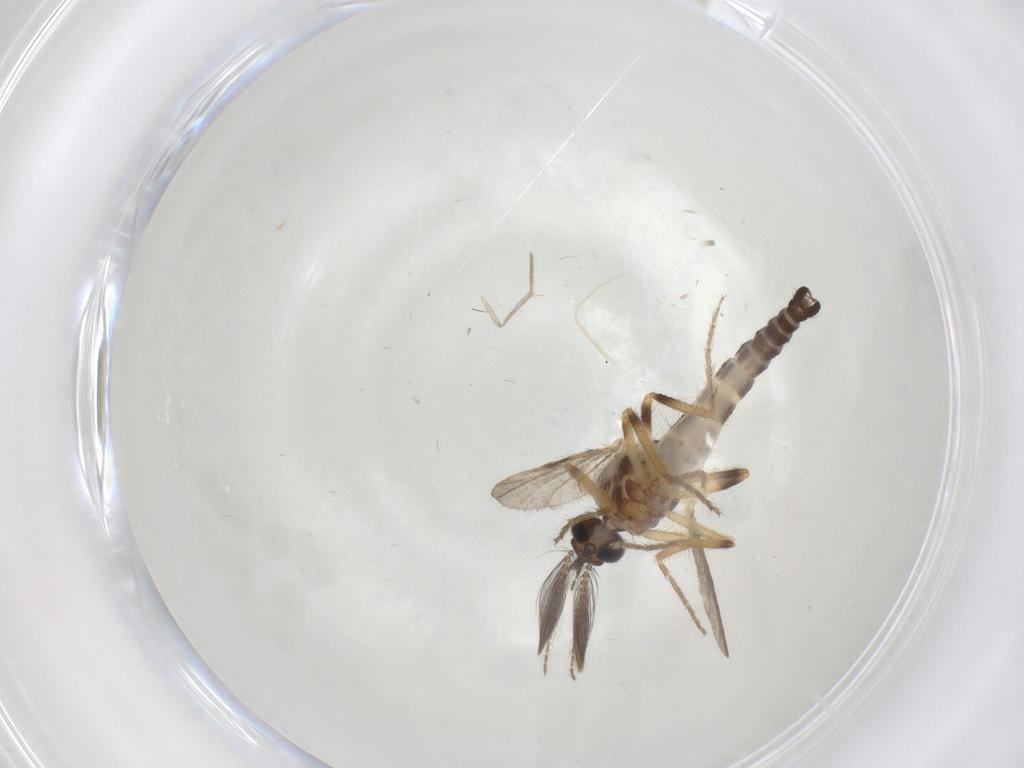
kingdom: Animalia
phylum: Arthropoda
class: Insecta
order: Diptera
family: Ceratopogonidae
